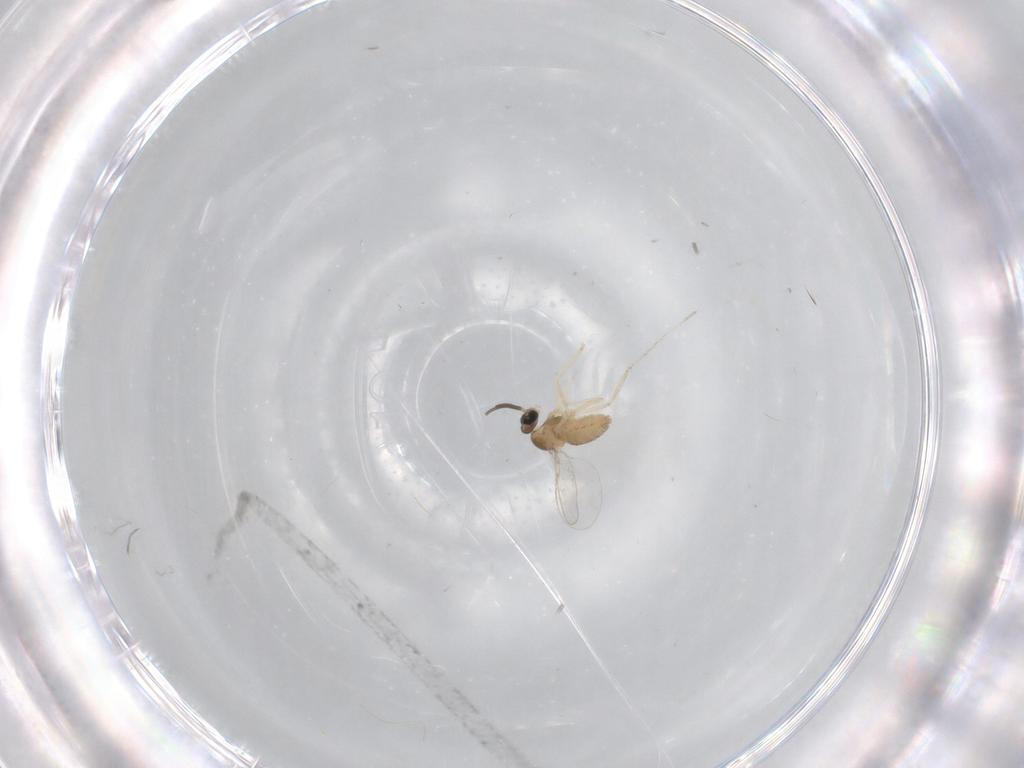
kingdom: Animalia
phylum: Arthropoda
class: Insecta
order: Diptera
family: Cecidomyiidae
